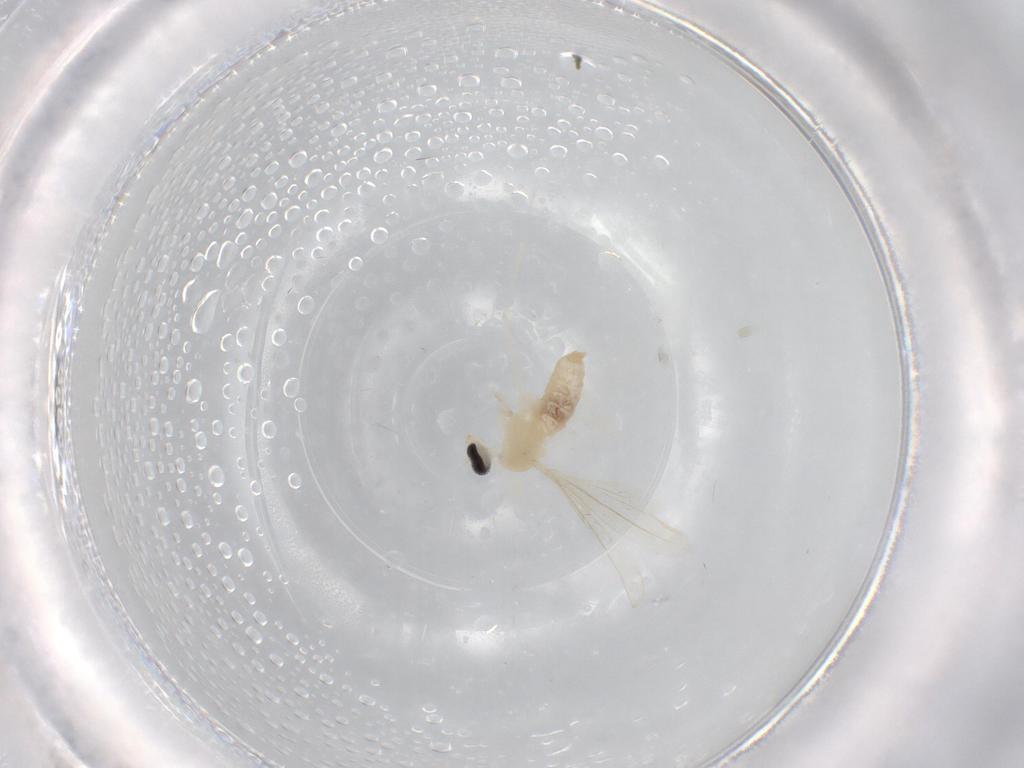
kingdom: Animalia
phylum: Arthropoda
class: Insecta
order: Diptera
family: Cecidomyiidae
